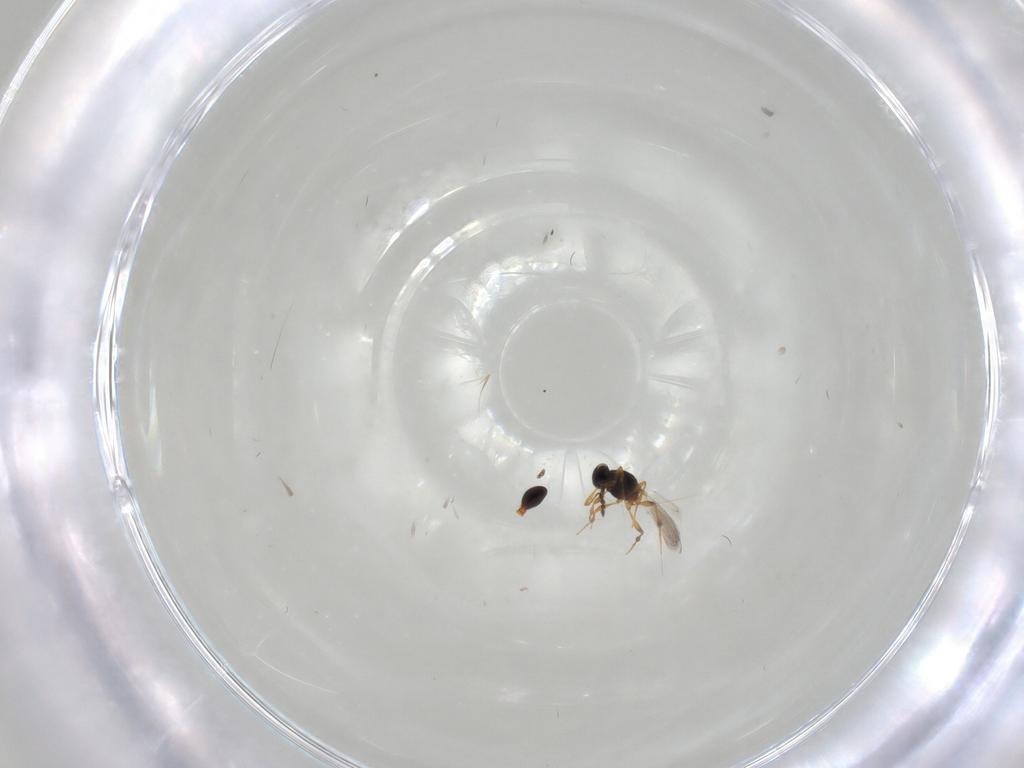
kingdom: Animalia
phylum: Arthropoda
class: Insecta
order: Hymenoptera
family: Platygastridae
